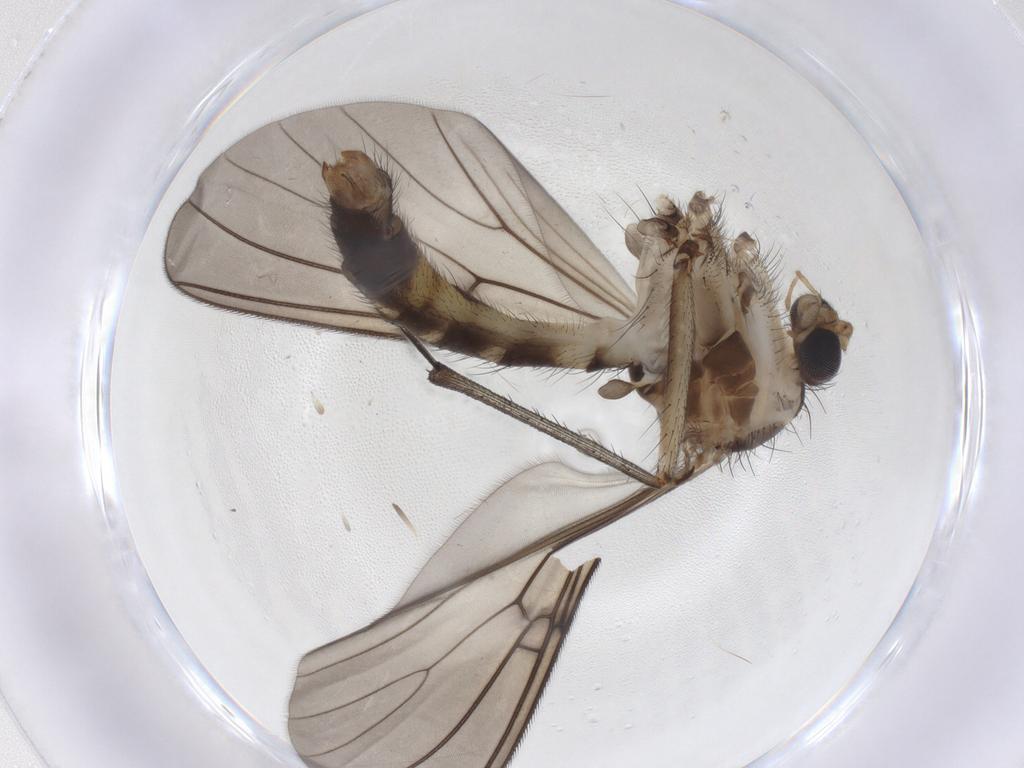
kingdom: Animalia
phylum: Arthropoda
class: Insecta
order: Diptera
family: Mycetophilidae
